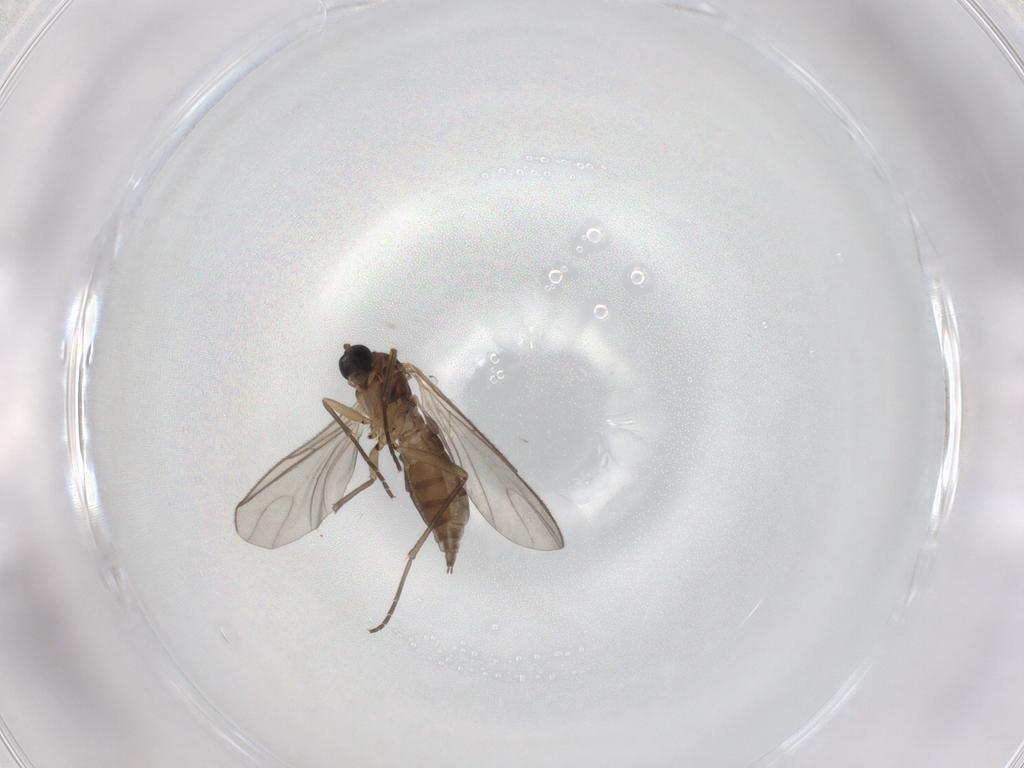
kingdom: Animalia
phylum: Arthropoda
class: Insecta
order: Diptera
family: Sciaridae
